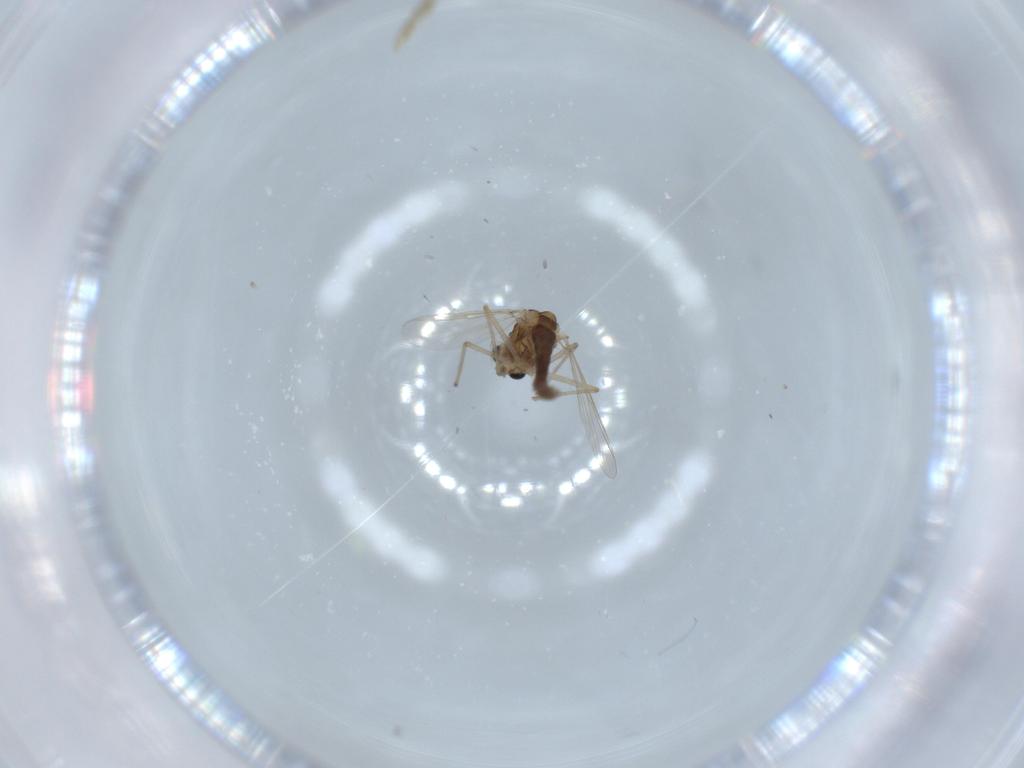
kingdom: Animalia
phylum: Arthropoda
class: Insecta
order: Diptera
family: Chironomidae
